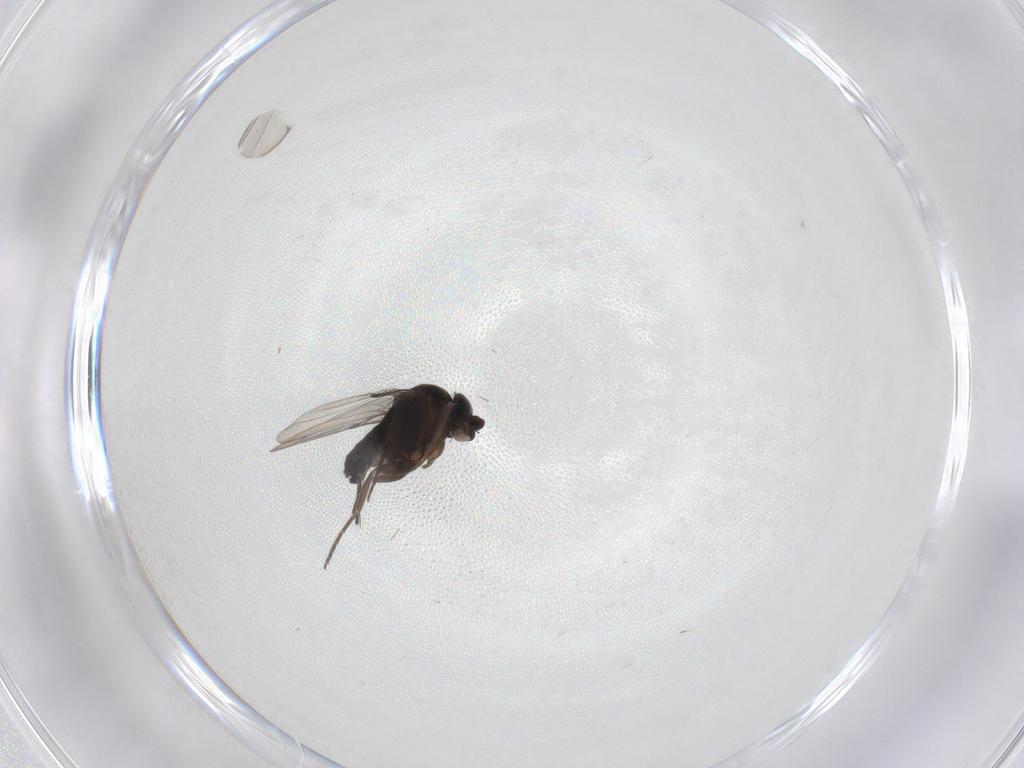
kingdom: Animalia
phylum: Arthropoda
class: Insecta
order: Diptera
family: Sciaridae
